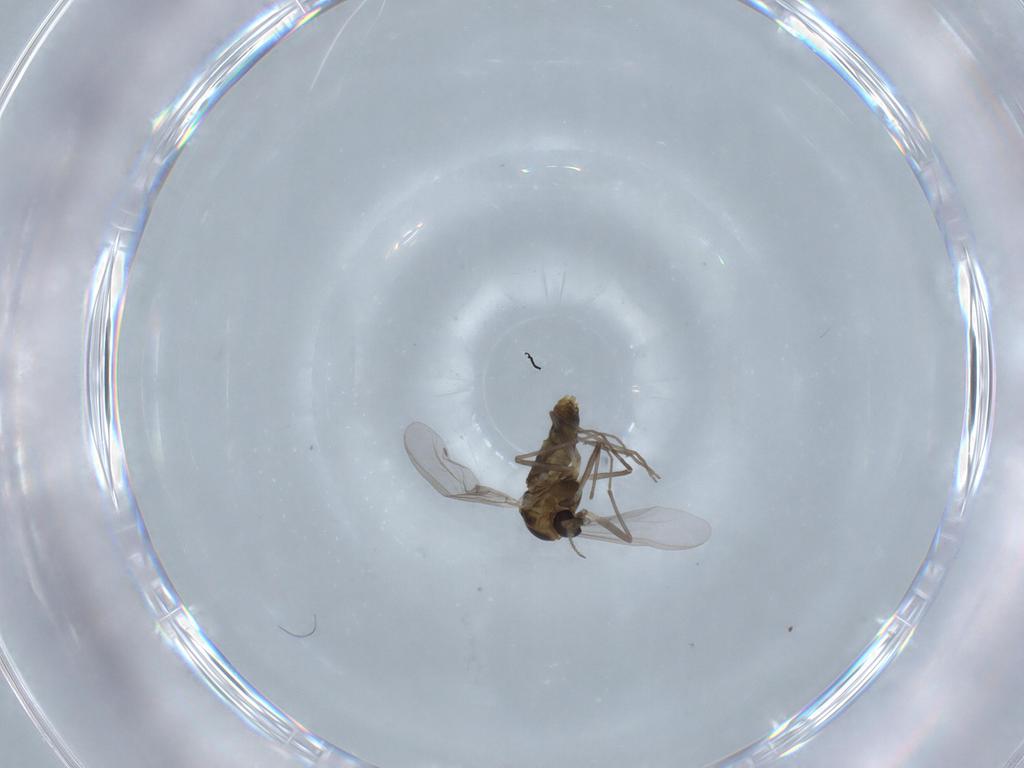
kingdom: Animalia
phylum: Arthropoda
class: Insecta
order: Diptera
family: Chironomidae
